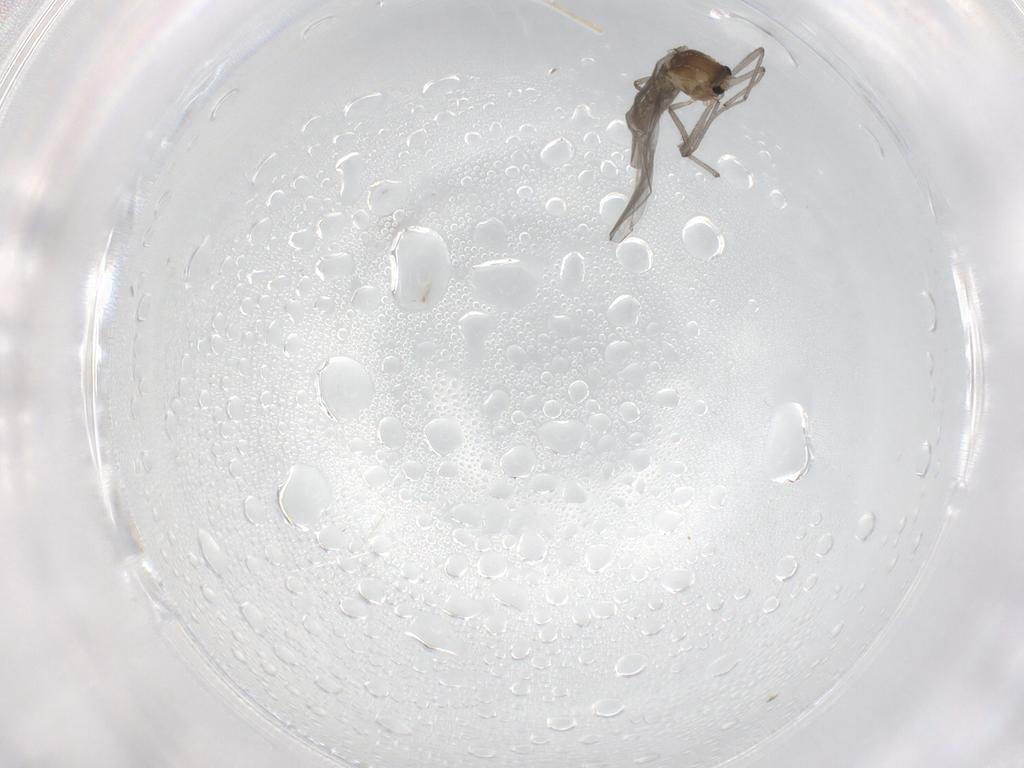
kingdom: Animalia
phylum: Arthropoda
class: Insecta
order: Diptera
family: Chironomidae
